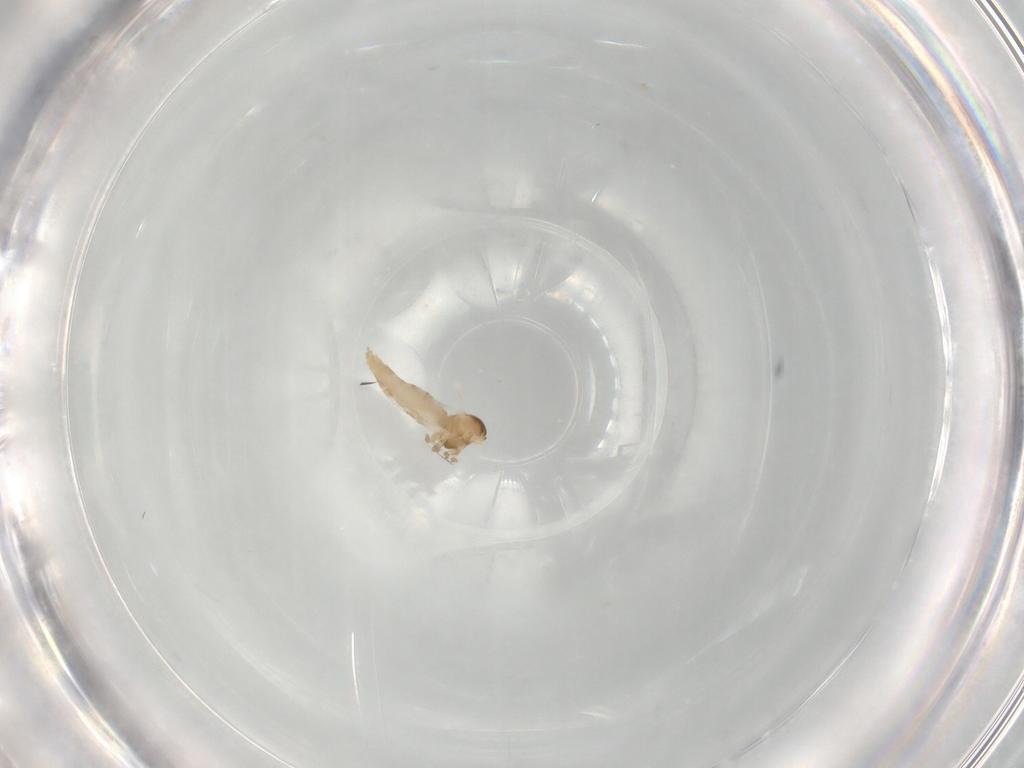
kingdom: Animalia
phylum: Arthropoda
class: Insecta
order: Diptera
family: Cecidomyiidae
